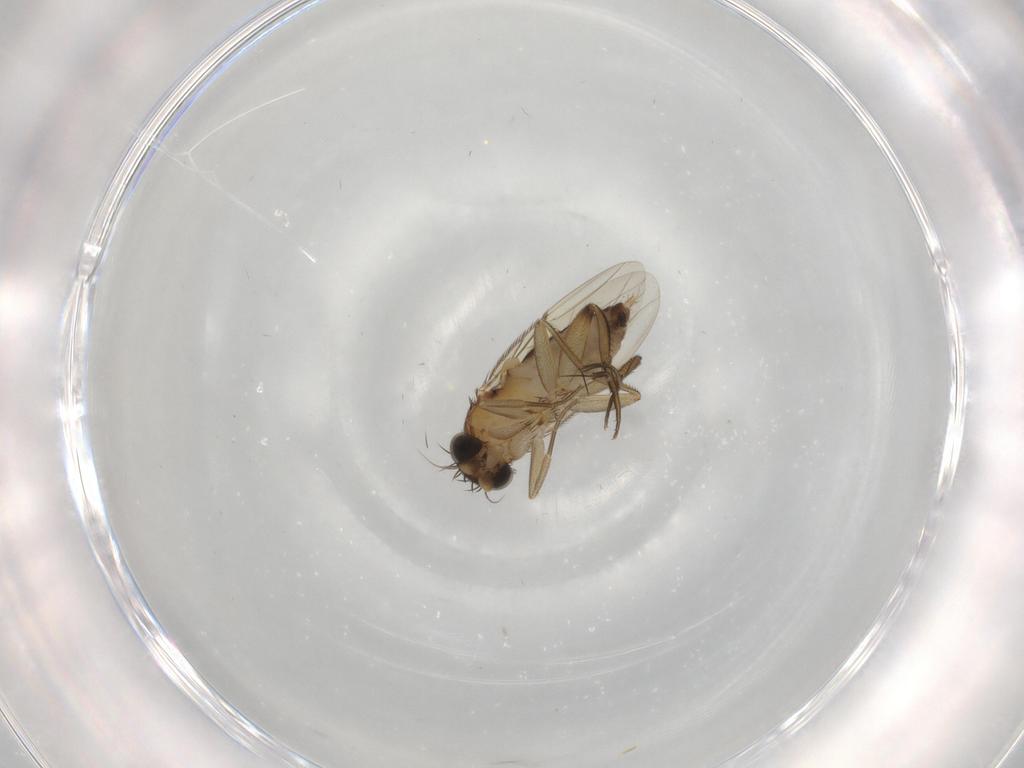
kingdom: Animalia
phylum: Arthropoda
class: Insecta
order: Diptera
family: Phoridae
